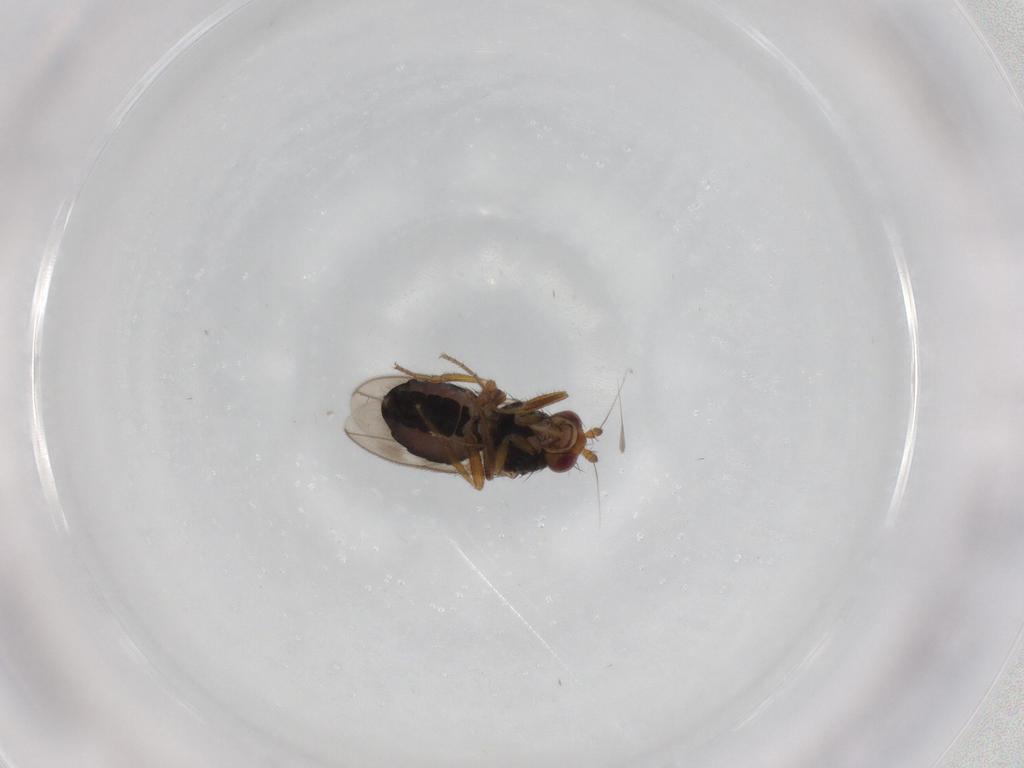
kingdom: Animalia
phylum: Arthropoda
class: Insecta
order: Diptera
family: Sphaeroceridae
